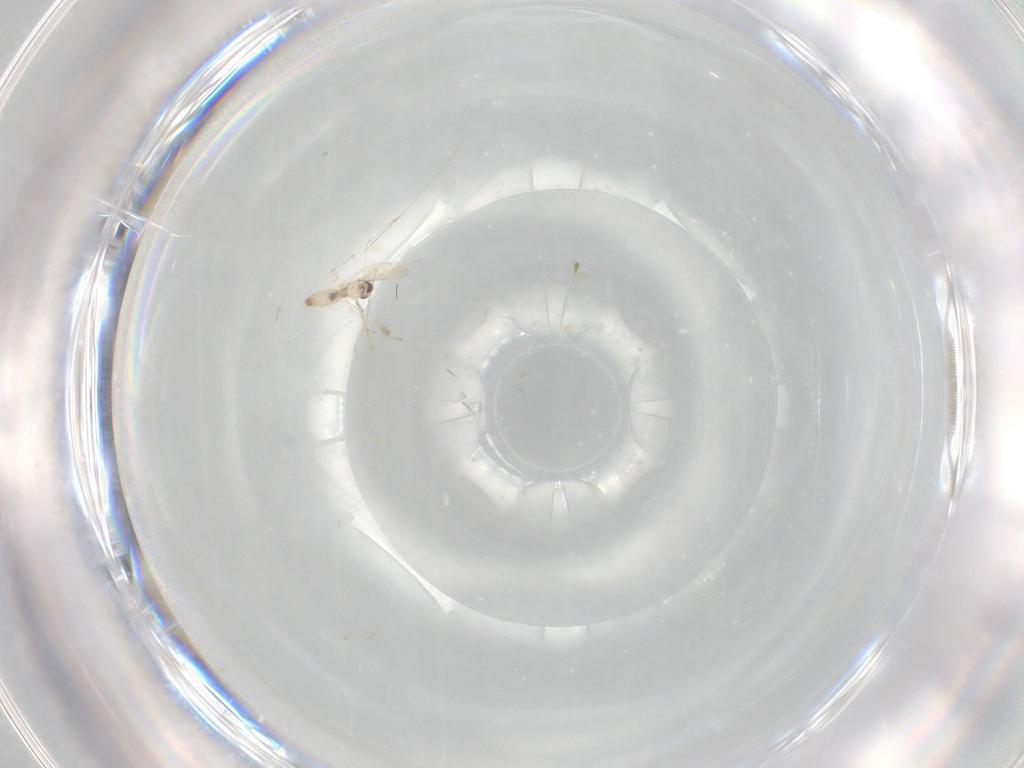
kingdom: Animalia
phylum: Arthropoda
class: Insecta
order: Diptera
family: Cecidomyiidae
